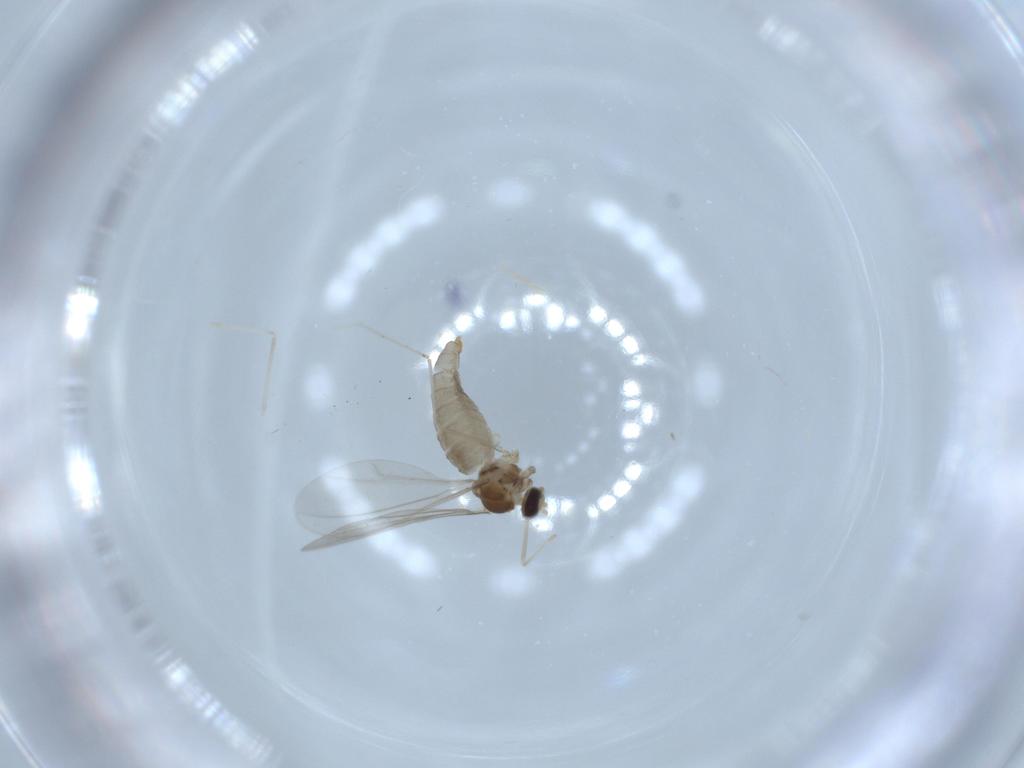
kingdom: Animalia
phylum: Arthropoda
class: Insecta
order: Diptera
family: Cecidomyiidae
